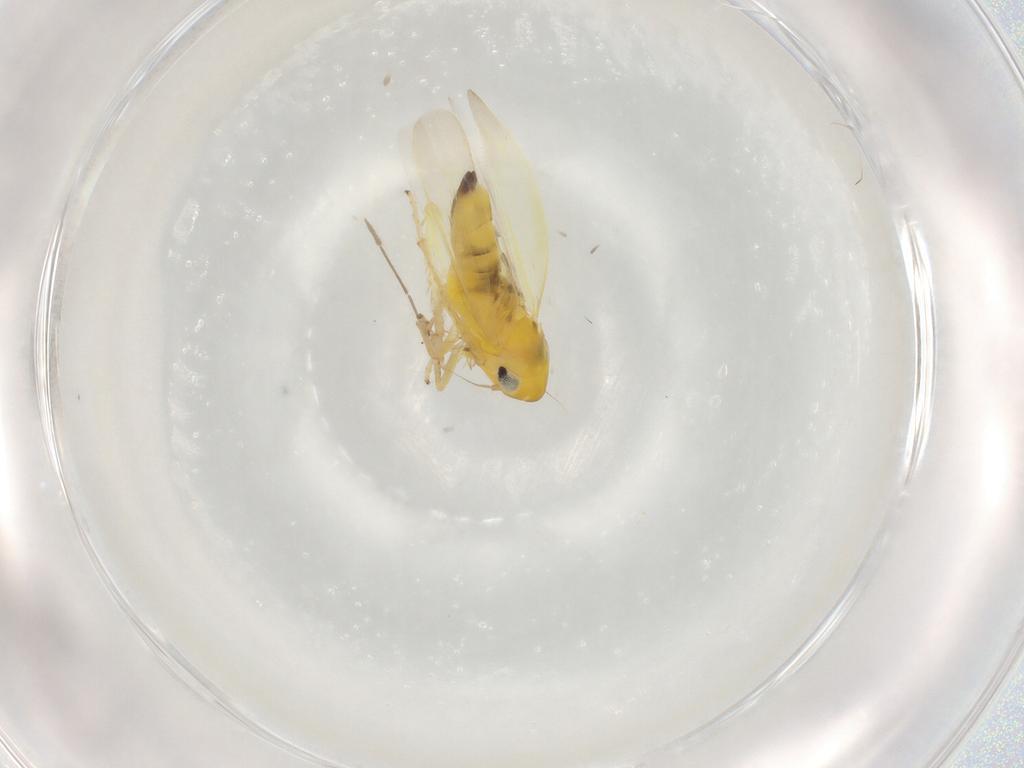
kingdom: Animalia
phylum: Arthropoda
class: Insecta
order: Hemiptera
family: Cicadellidae
